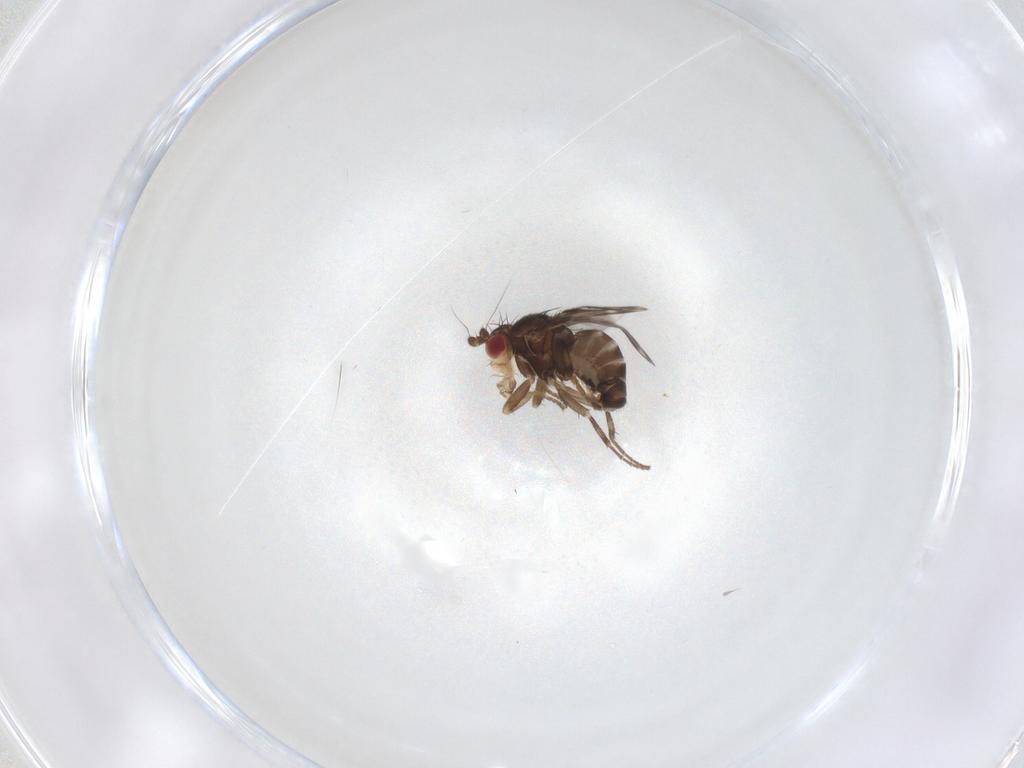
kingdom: Animalia
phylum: Arthropoda
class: Insecta
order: Diptera
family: Sphaeroceridae
